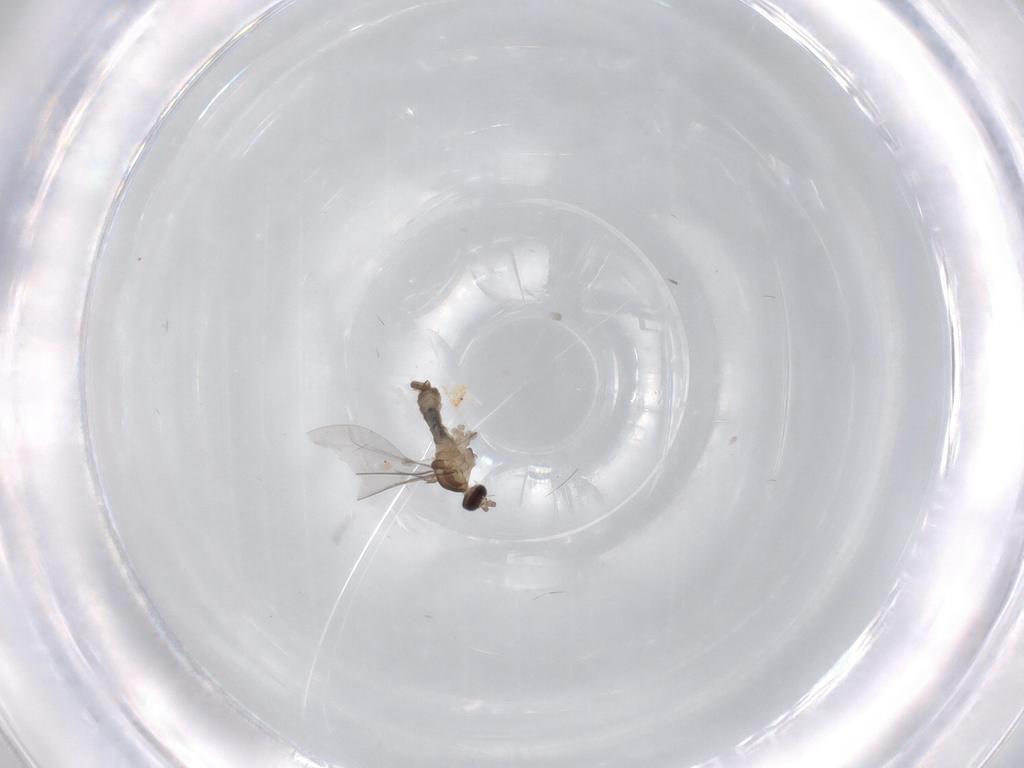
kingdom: Animalia
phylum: Arthropoda
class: Insecta
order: Diptera
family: Cecidomyiidae
